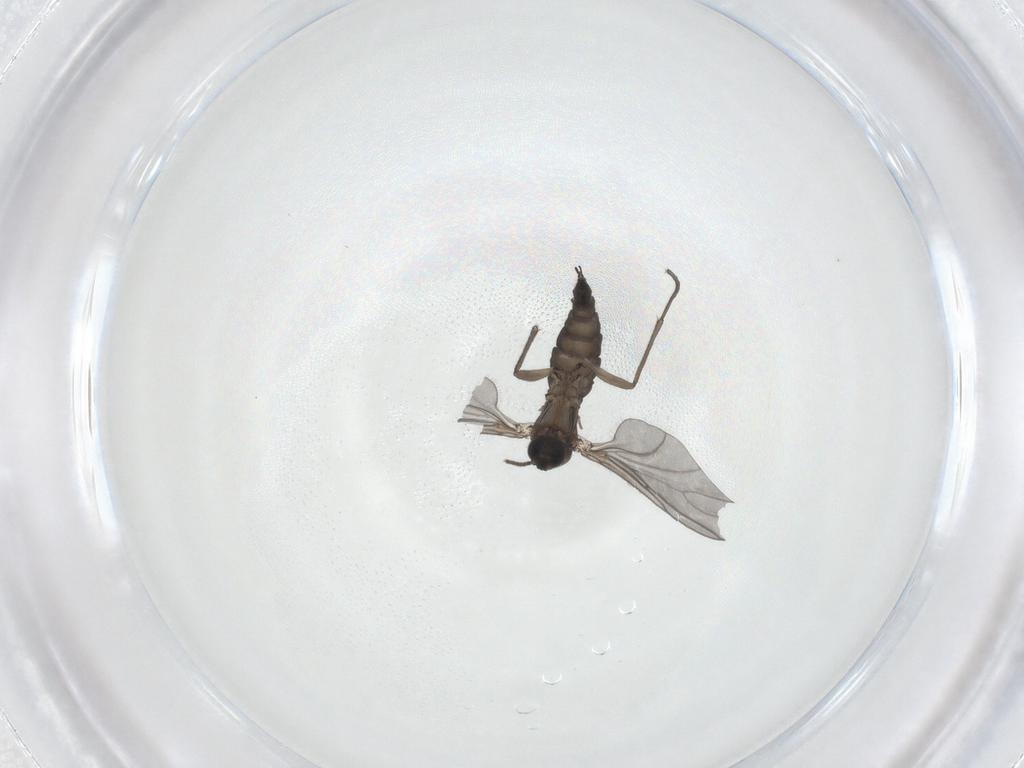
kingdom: Animalia
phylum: Arthropoda
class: Insecta
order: Diptera
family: Sciaridae
